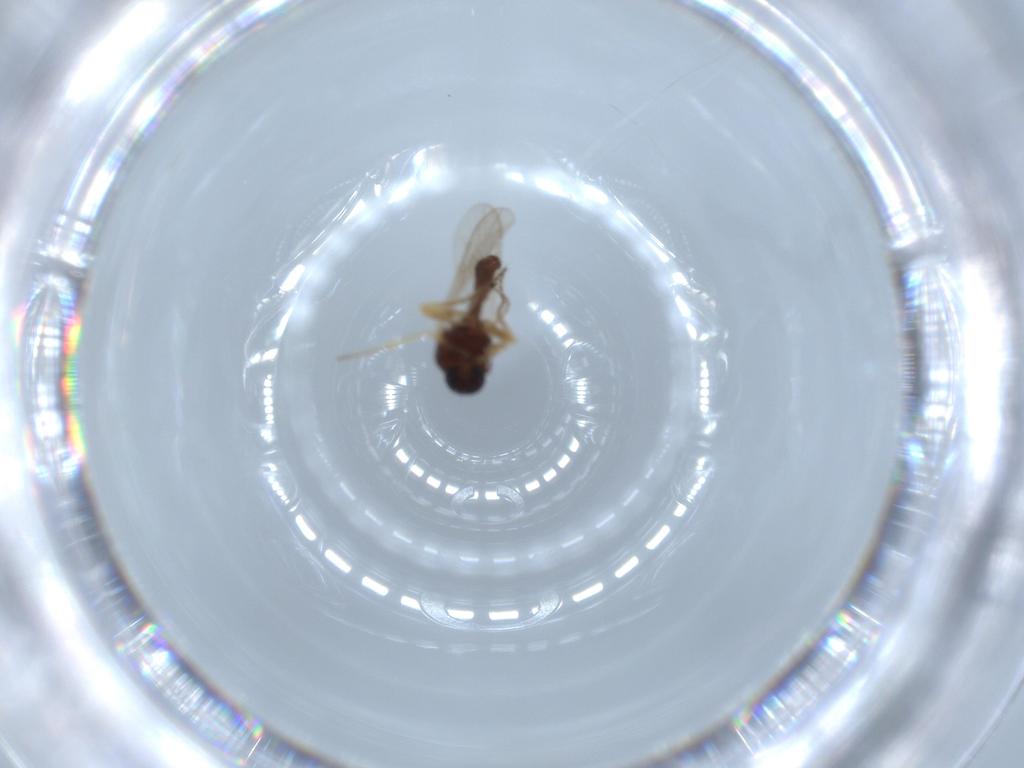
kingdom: Animalia
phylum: Arthropoda
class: Insecta
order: Diptera
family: Ceratopogonidae
